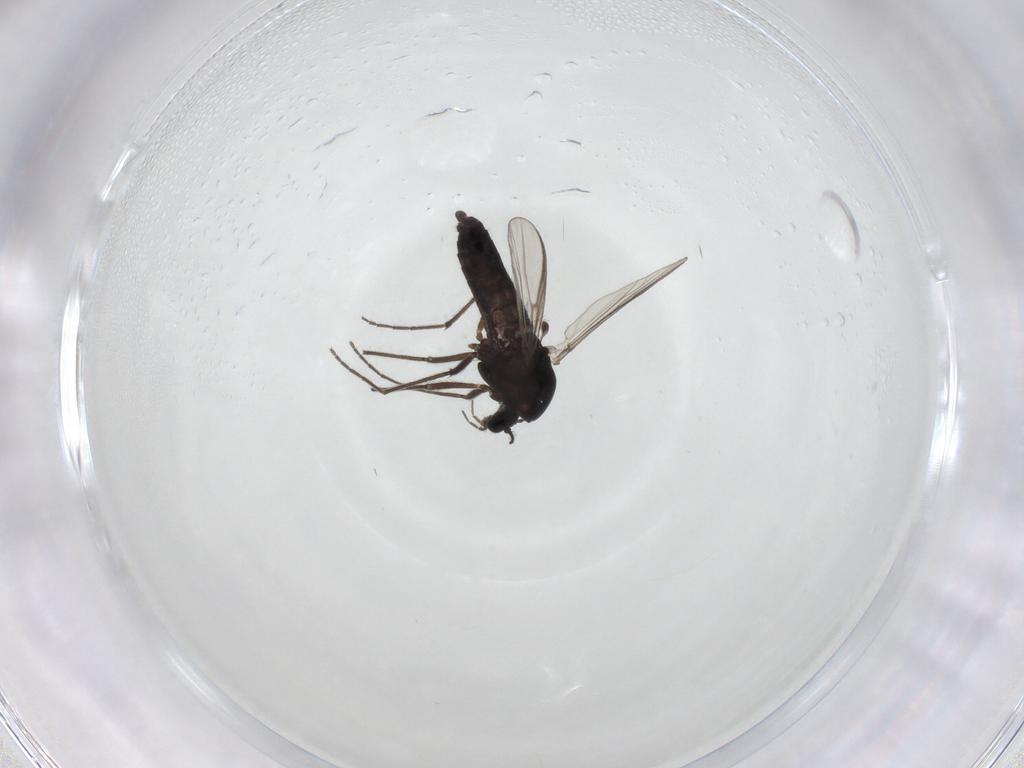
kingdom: Animalia
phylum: Arthropoda
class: Insecta
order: Diptera
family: Chironomidae
